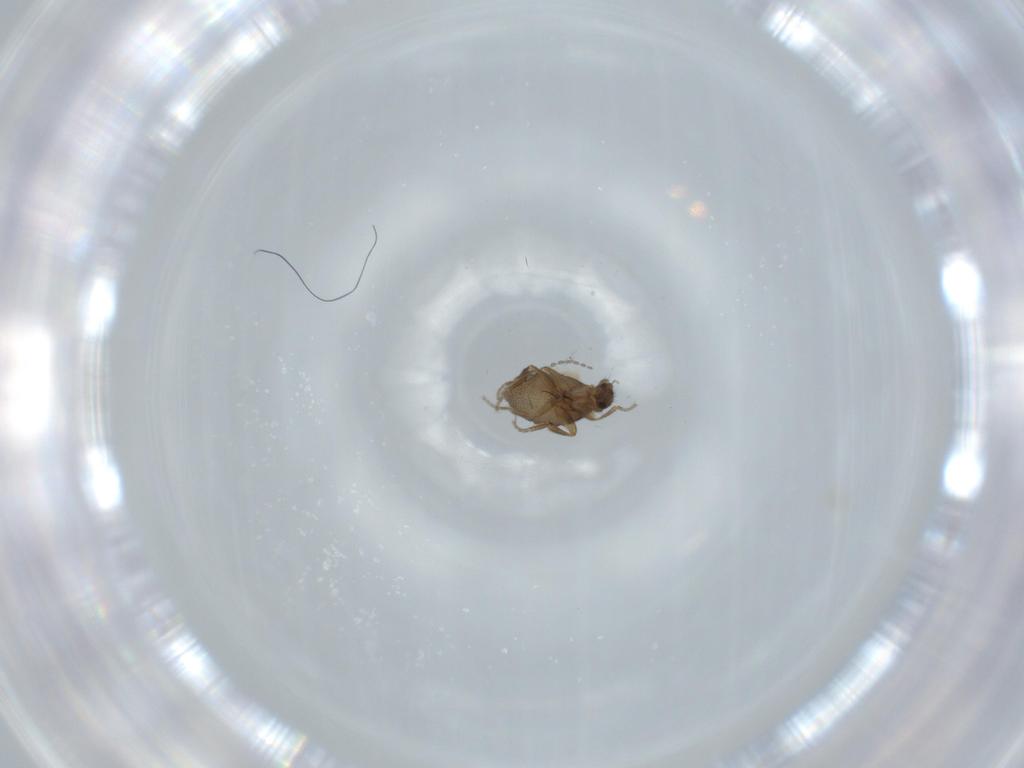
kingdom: Animalia
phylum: Arthropoda
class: Insecta
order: Diptera
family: Cecidomyiidae
